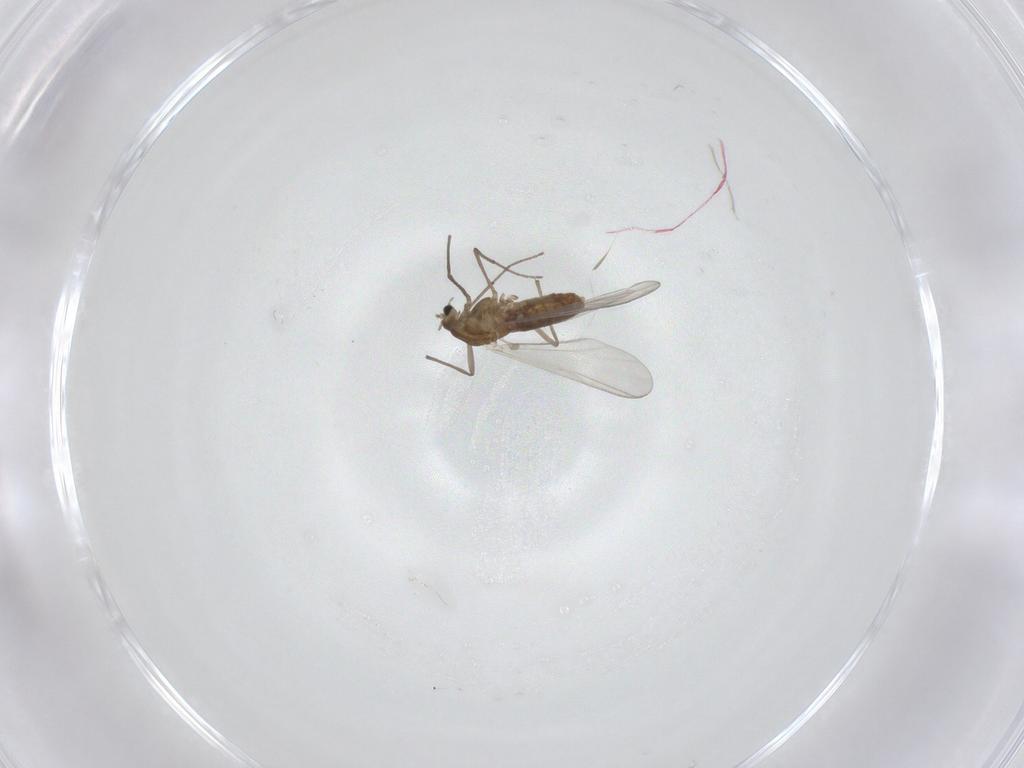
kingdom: Animalia
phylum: Arthropoda
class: Insecta
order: Diptera
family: Chironomidae
